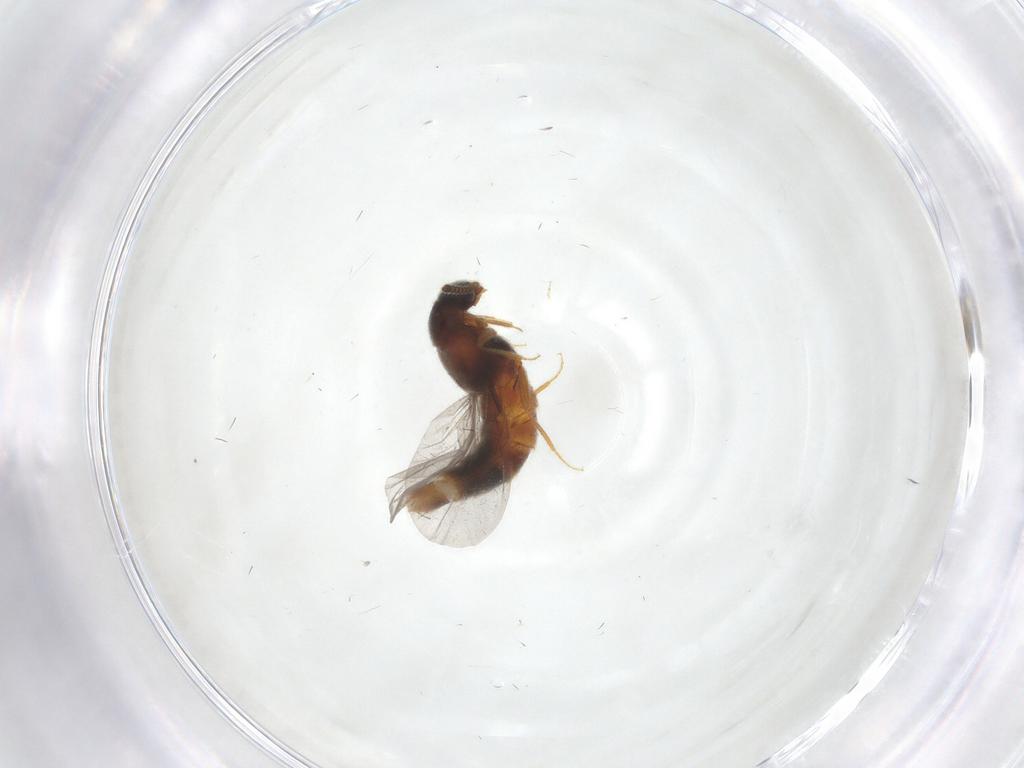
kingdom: Animalia
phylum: Arthropoda
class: Insecta
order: Coleoptera
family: Staphylinidae
